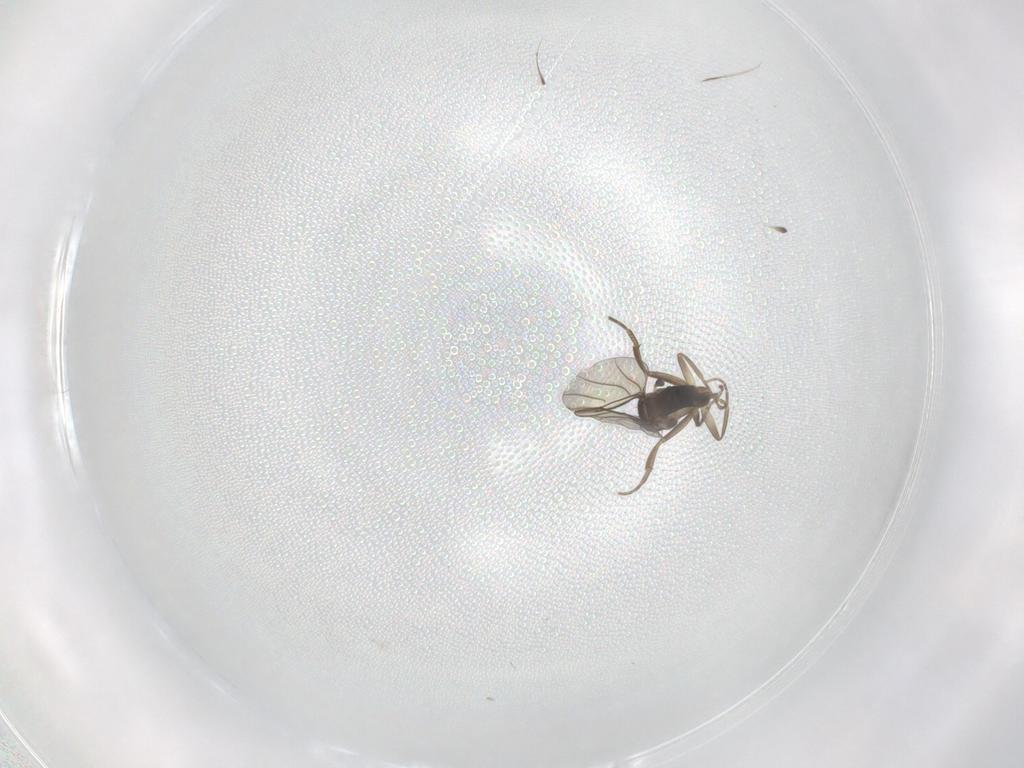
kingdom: Animalia
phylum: Arthropoda
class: Insecta
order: Diptera
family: Phoridae
